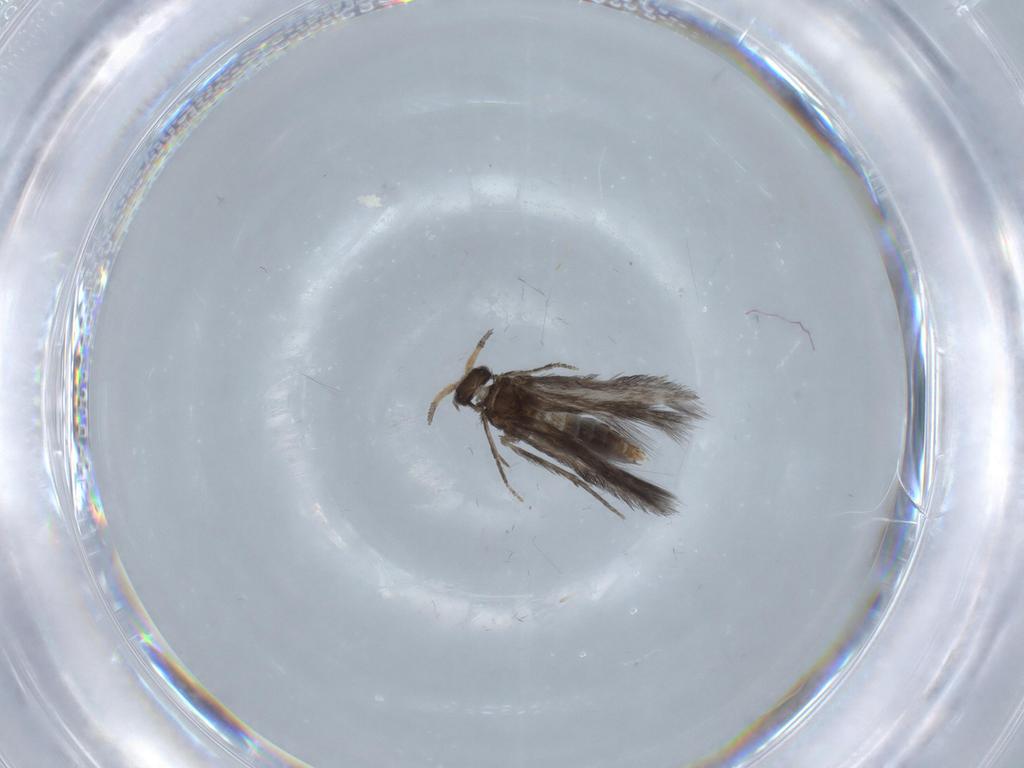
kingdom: Animalia
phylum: Arthropoda
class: Insecta
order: Trichoptera
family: Hydroptilidae
